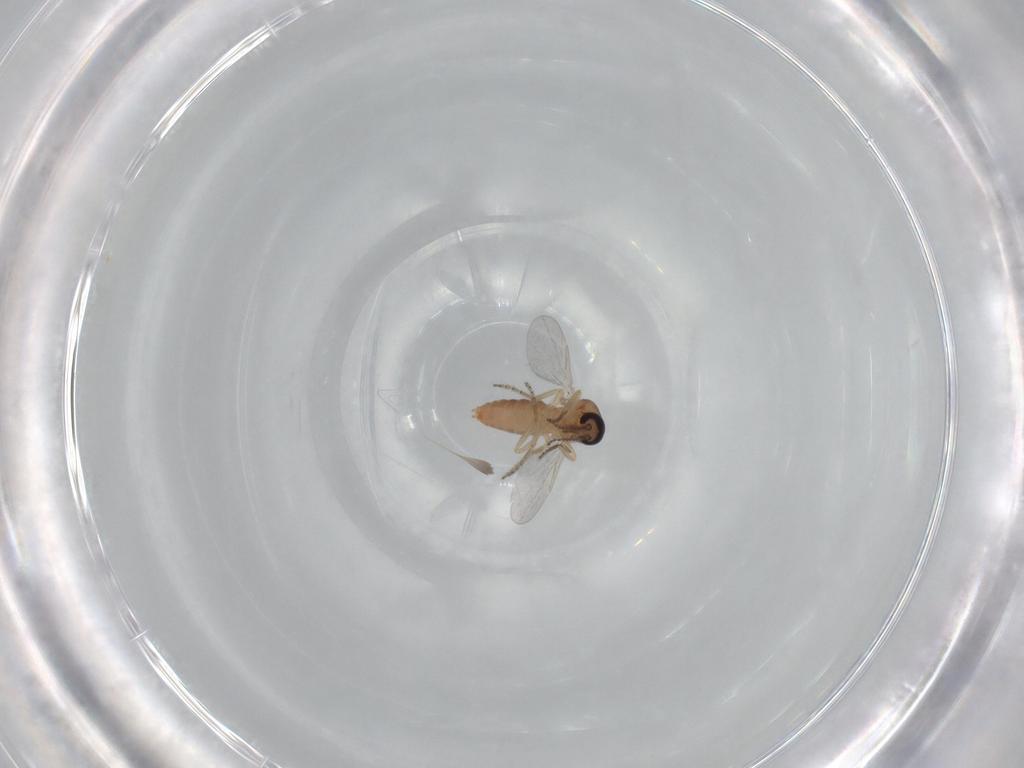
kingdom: Animalia
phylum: Arthropoda
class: Insecta
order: Diptera
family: Ceratopogonidae
